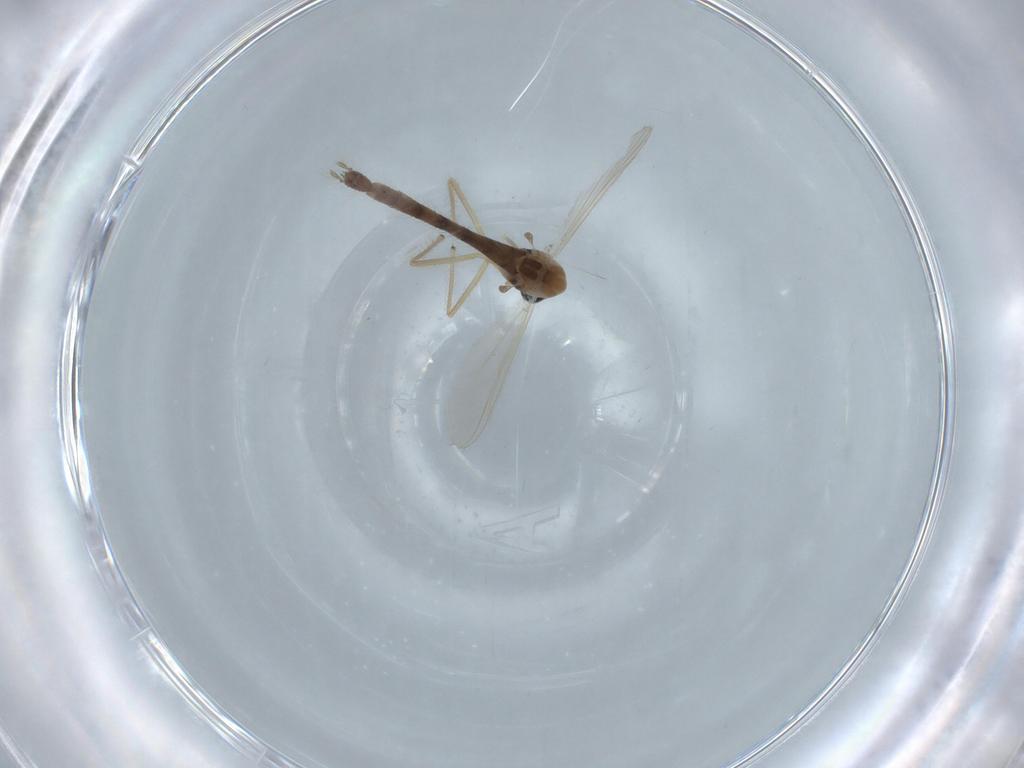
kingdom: Animalia
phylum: Arthropoda
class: Insecta
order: Diptera
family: Chironomidae
